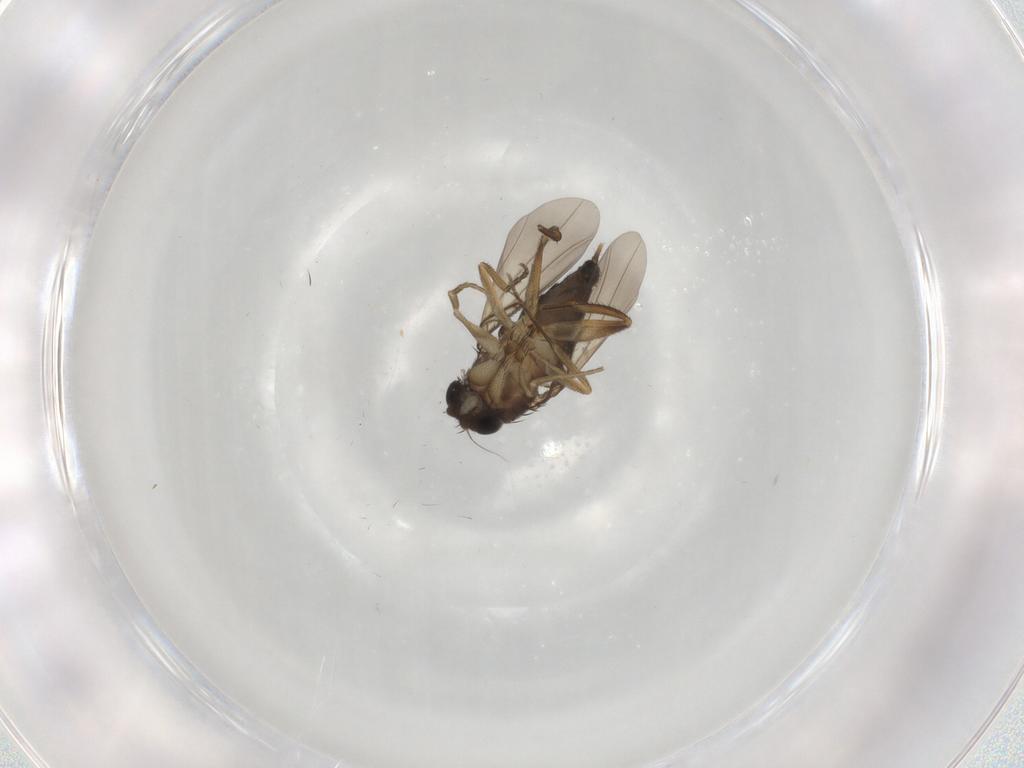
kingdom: Animalia
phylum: Arthropoda
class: Insecta
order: Diptera
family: Phoridae
